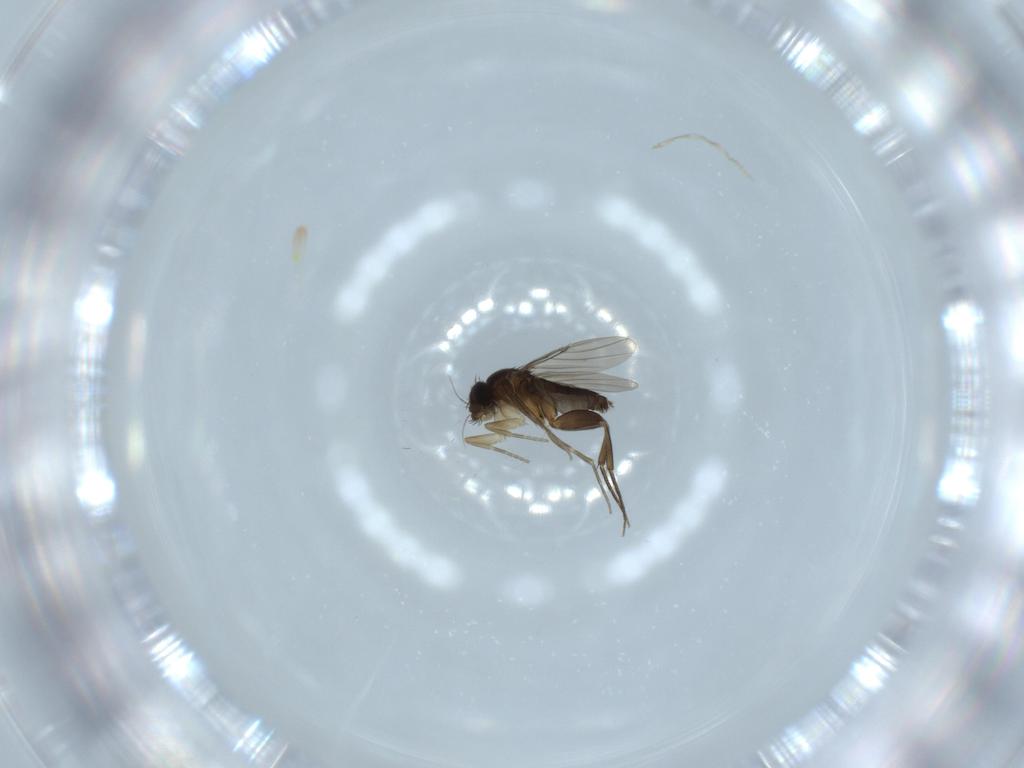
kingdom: Animalia
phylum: Arthropoda
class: Insecta
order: Diptera
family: Phoridae
